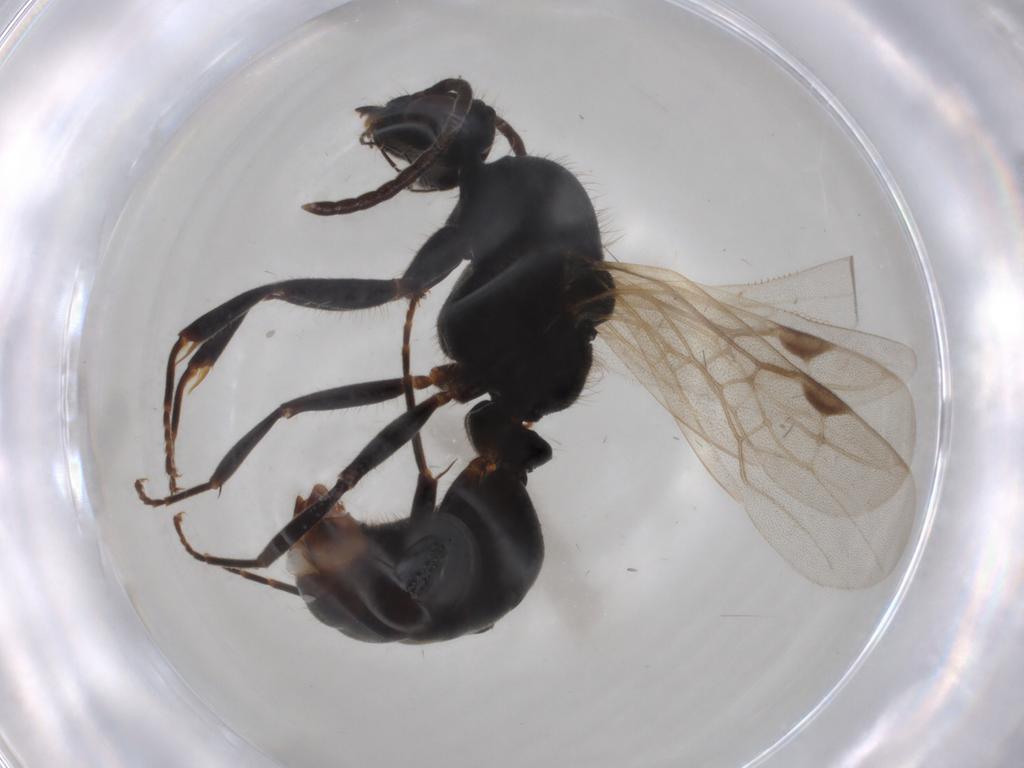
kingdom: Animalia
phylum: Arthropoda
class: Insecta
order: Hymenoptera
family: Formicidae
